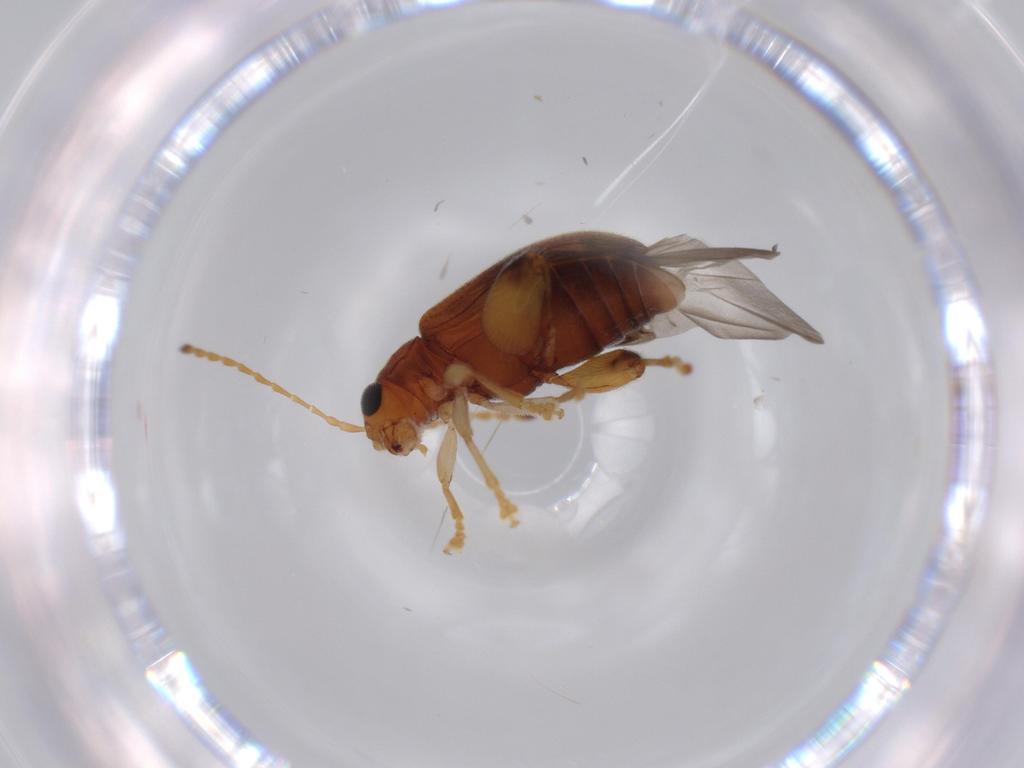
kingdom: Animalia
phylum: Arthropoda
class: Insecta
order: Coleoptera
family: Chrysomelidae
